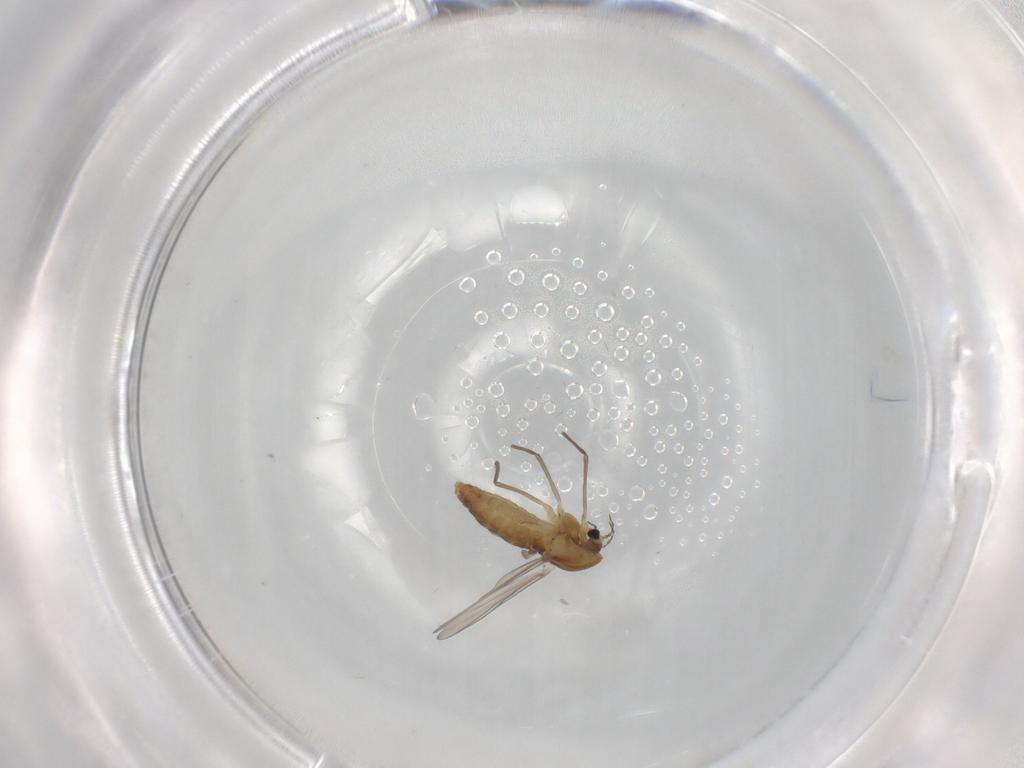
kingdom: Animalia
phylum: Arthropoda
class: Insecta
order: Diptera
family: Chironomidae
